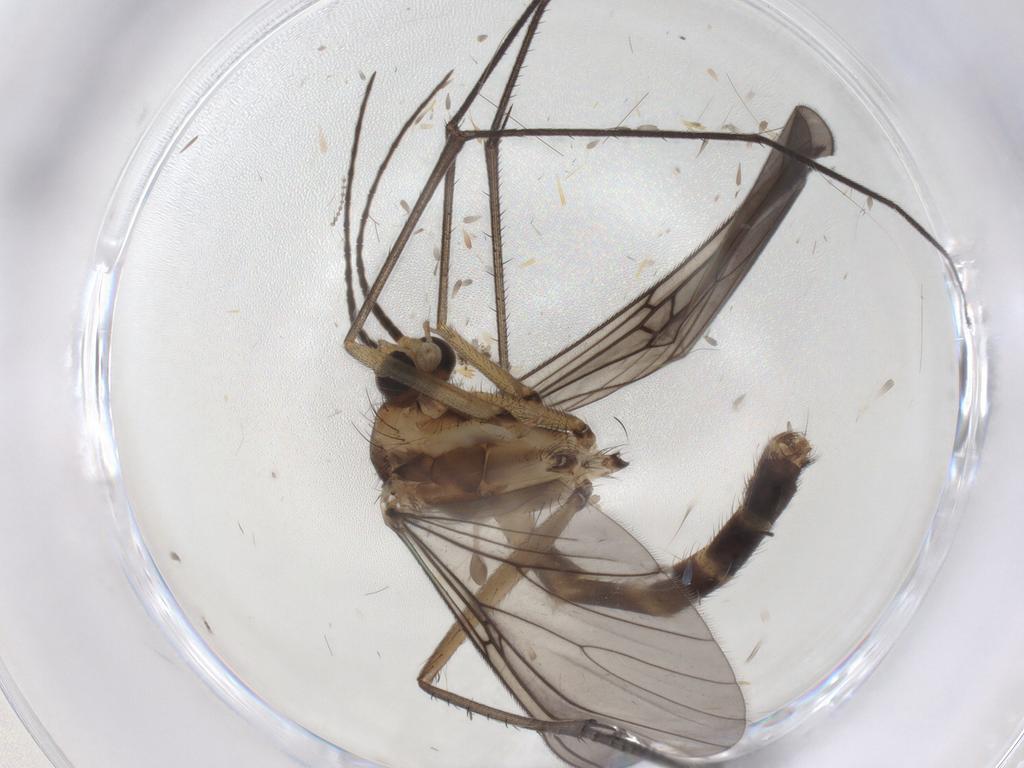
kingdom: Animalia
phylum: Arthropoda
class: Insecta
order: Diptera
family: Mycetophilidae
